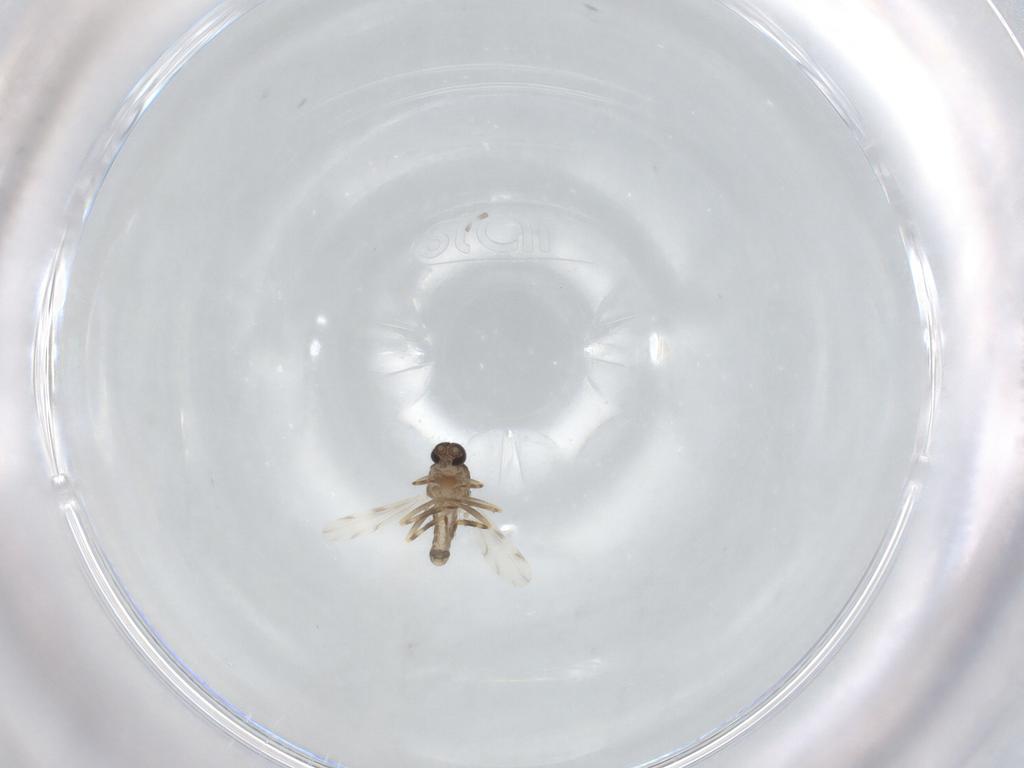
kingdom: Animalia
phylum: Arthropoda
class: Insecta
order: Diptera
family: Ceratopogonidae
